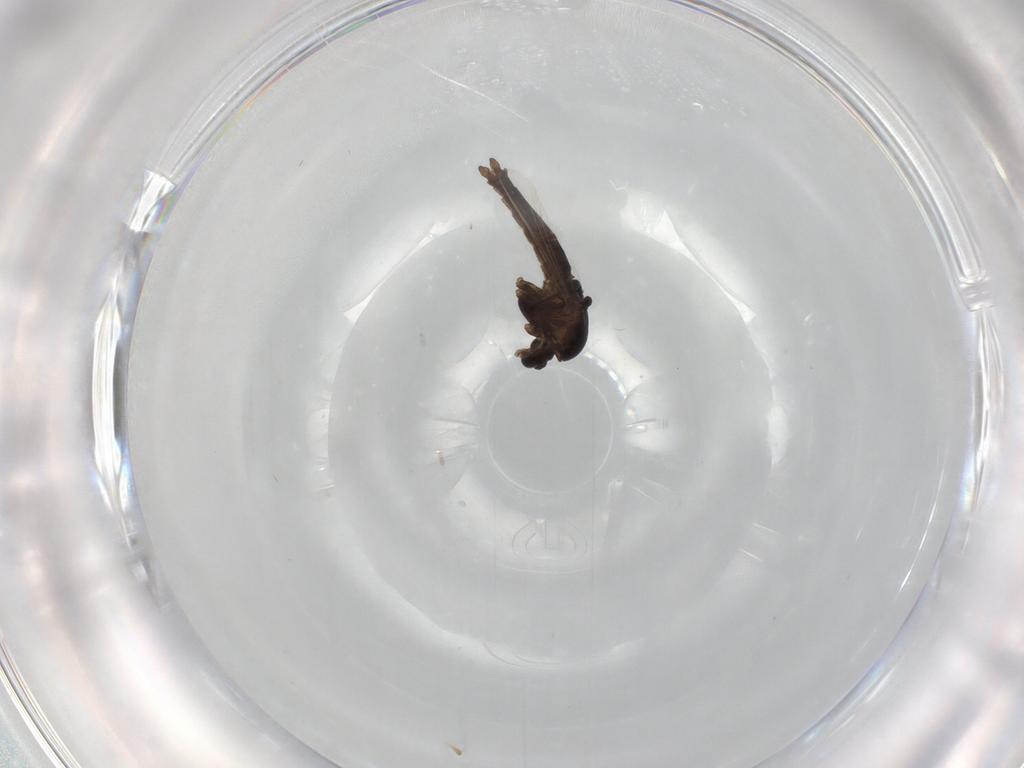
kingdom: Animalia
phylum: Arthropoda
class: Insecta
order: Diptera
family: Chironomidae
